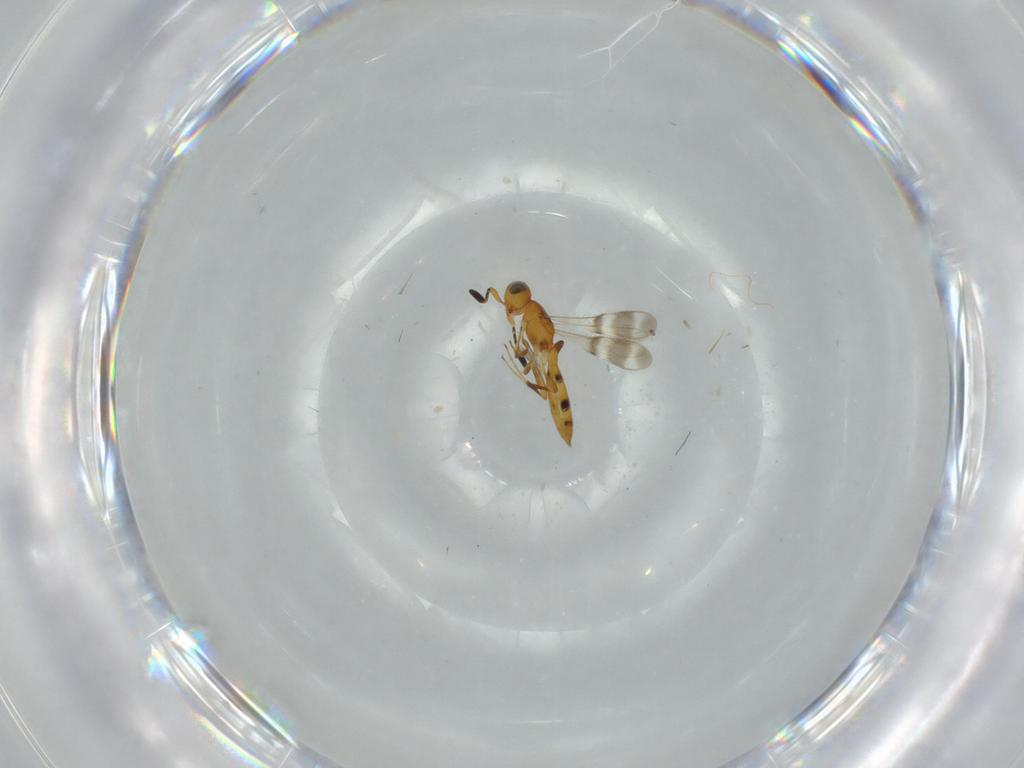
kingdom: Animalia
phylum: Arthropoda
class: Insecta
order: Hymenoptera
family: Scelionidae
